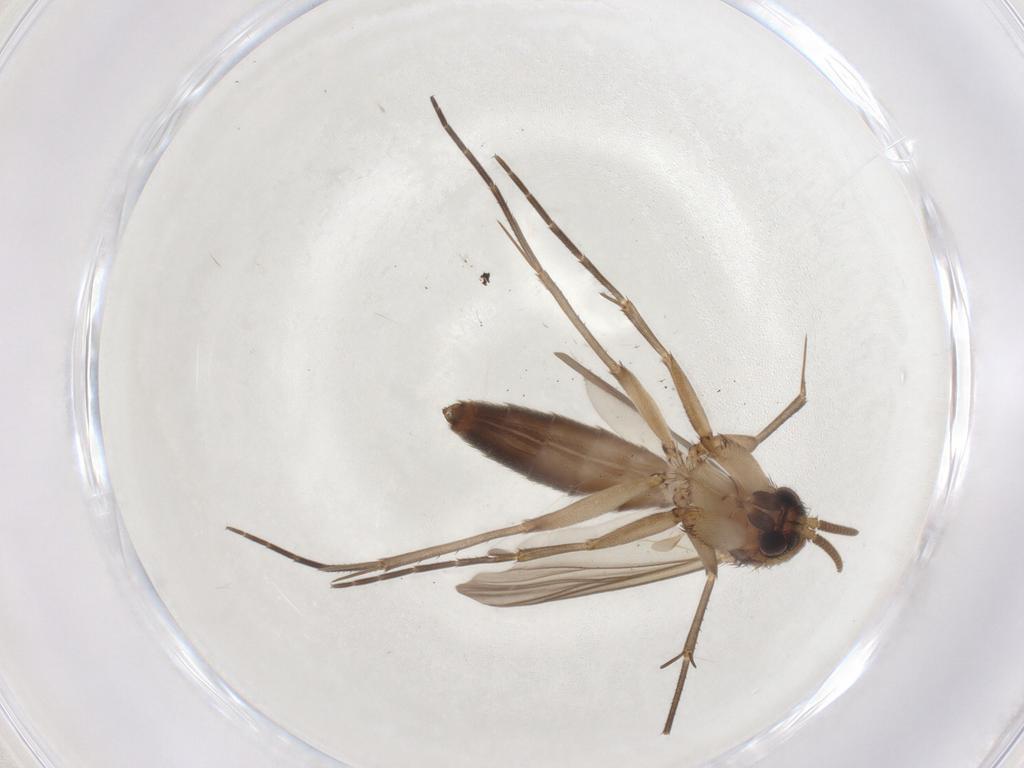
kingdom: Animalia
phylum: Arthropoda
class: Insecta
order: Diptera
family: Mycetophilidae
